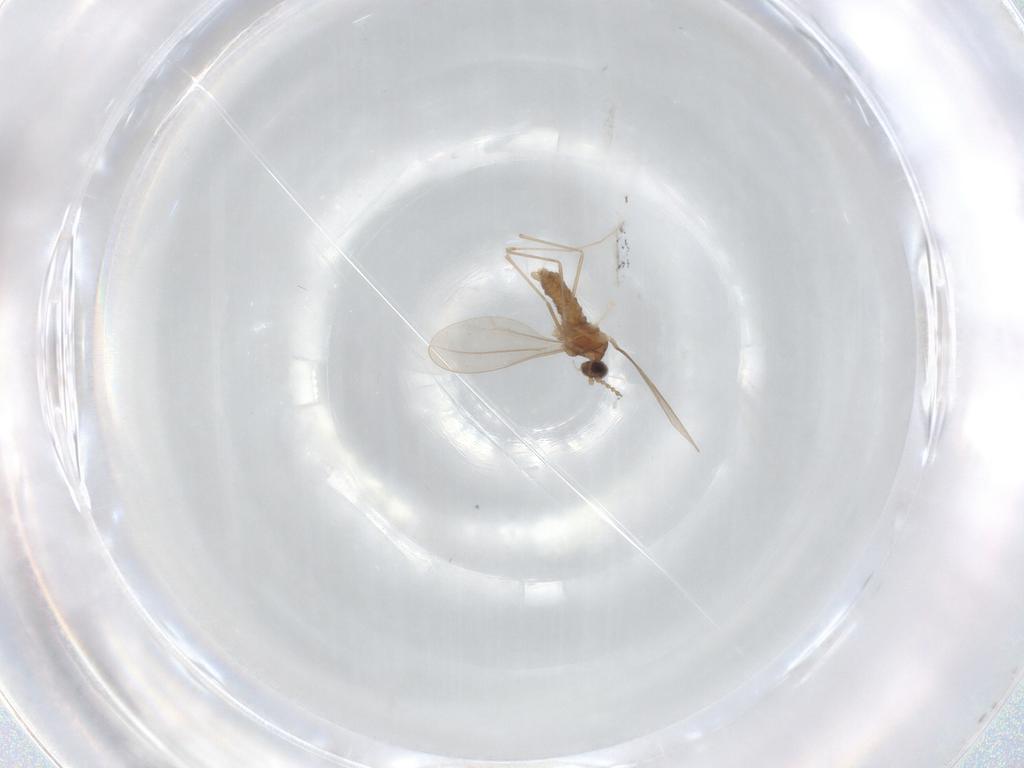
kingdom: Animalia
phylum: Arthropoda
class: Insecta
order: Diptera
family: Cecidomyiidae
